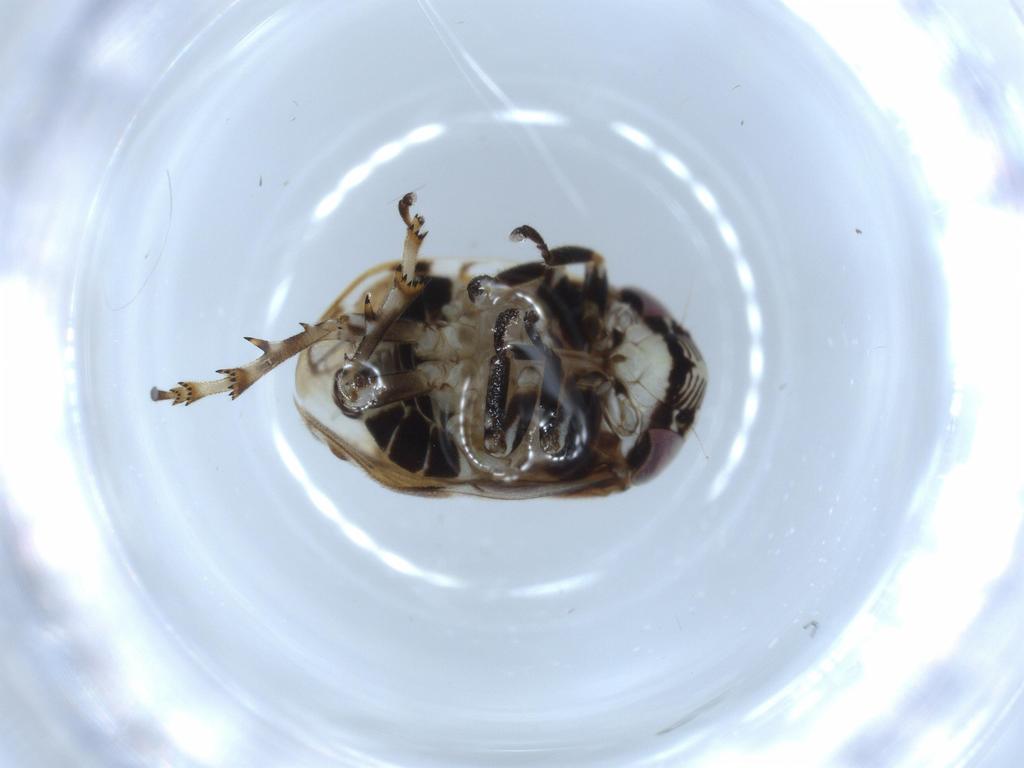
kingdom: Animalia
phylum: Arthropoda
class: Insecta
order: Hemiptera
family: Clastopteridae
